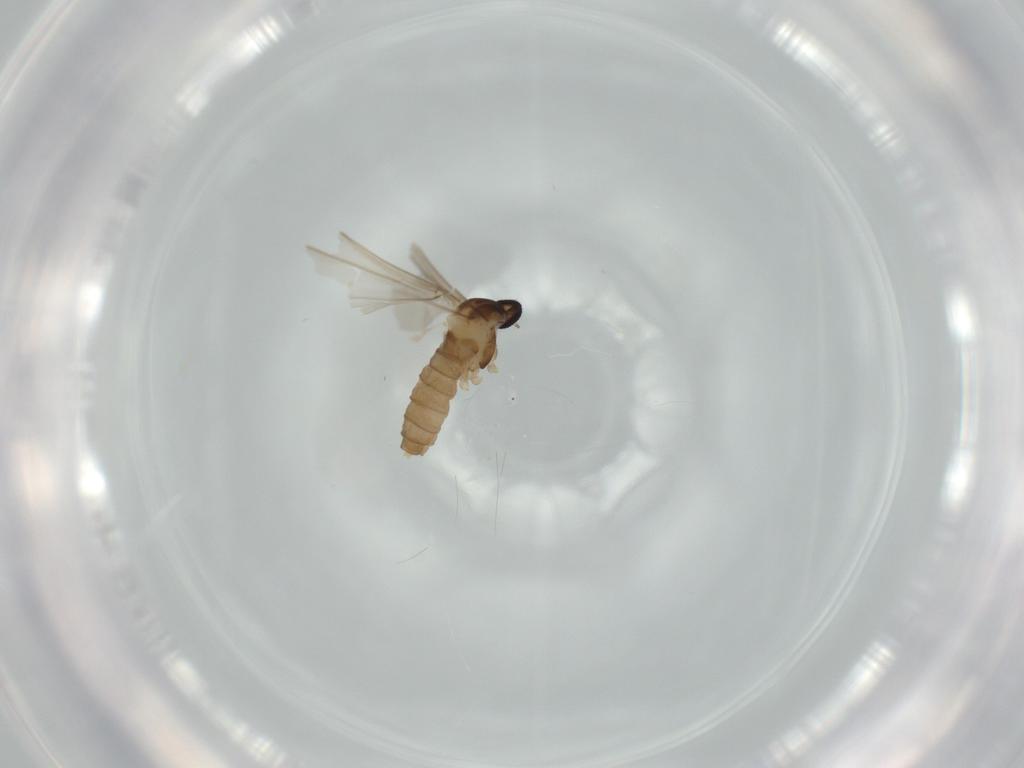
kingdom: Animalia
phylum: Arthropoda
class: Insecta
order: Diptera
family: Cecidomyiidae
